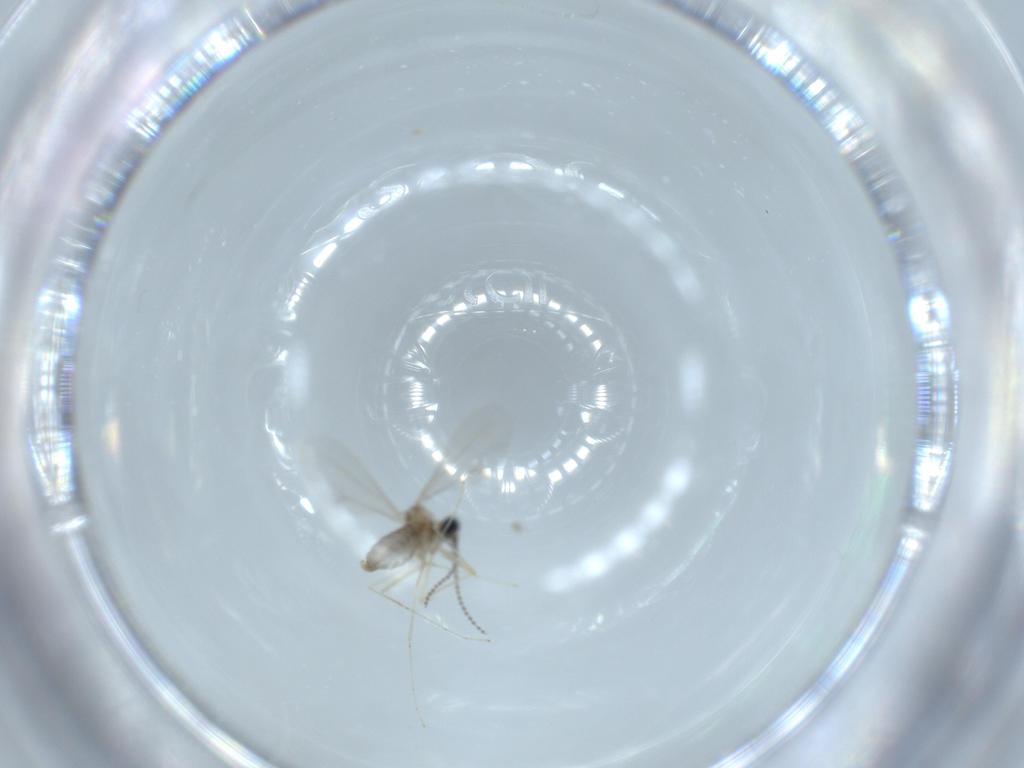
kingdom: Animalia
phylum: Arthropoda
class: Insecta
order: Diptera
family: Cecidomyiidae
